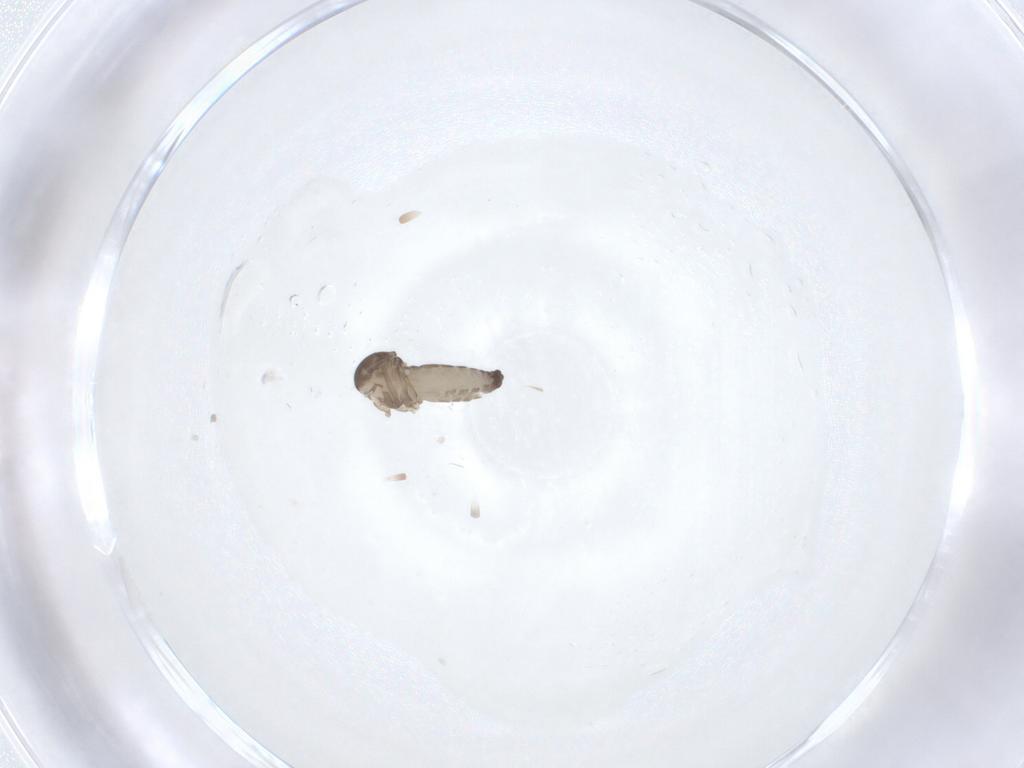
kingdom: Animalia
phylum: Arthropoda
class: Insecta
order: Diptera
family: Ceratopogonidae
